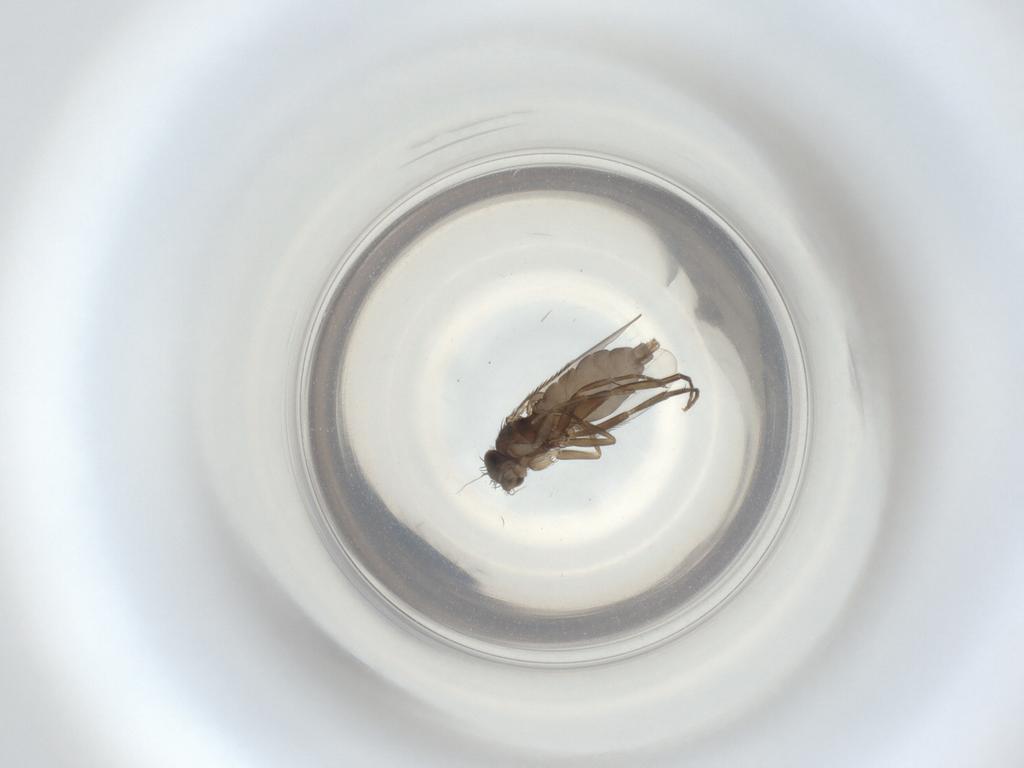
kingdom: Animalia
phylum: Arthropoda
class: Insecta
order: Diptera
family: Phoridae
